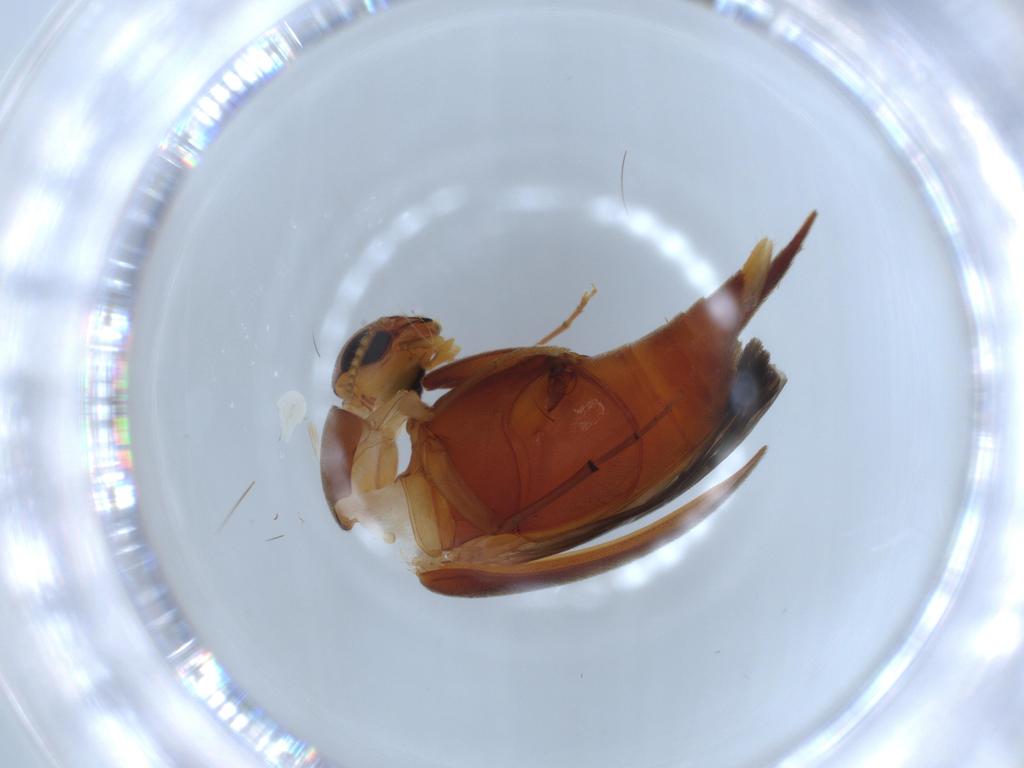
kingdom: Animalia
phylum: Arthropoda
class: Insecta
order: Coleoptera
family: Mordellidae
